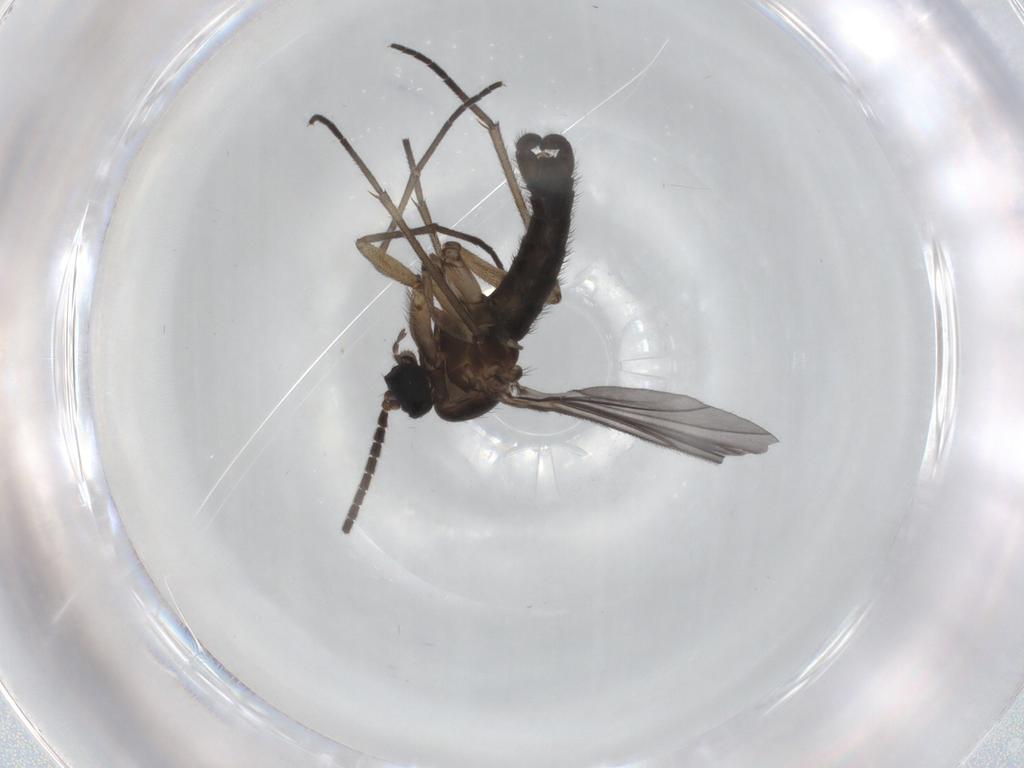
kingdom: Animalia
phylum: Arthropoda
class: Insecta
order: Diptera
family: Sciaridae
